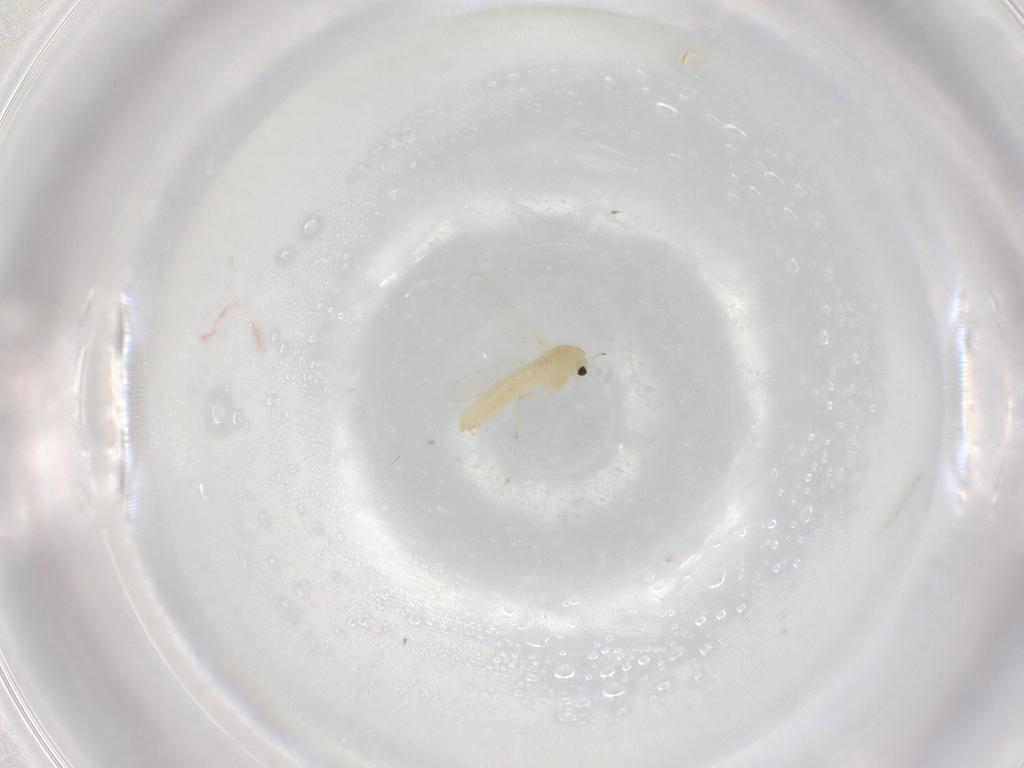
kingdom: Animalia
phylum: Arthropoda
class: Insecta
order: Diptera
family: Chironomidae
